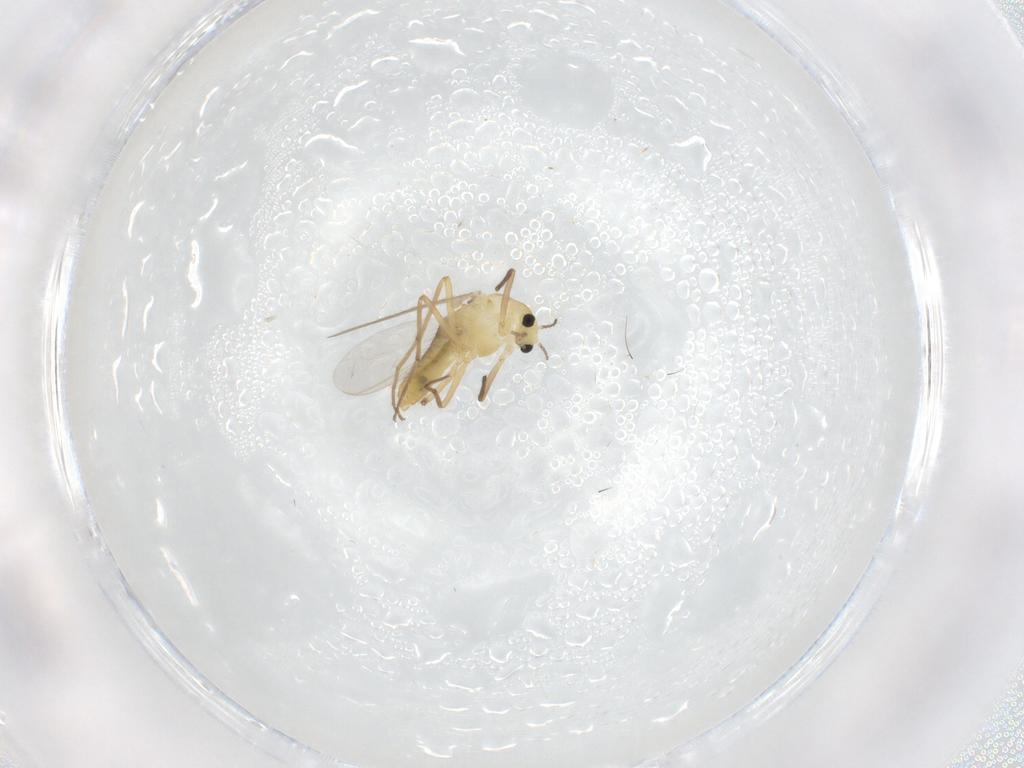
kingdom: Animalia
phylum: Arthropoda
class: Insecta
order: Diptera
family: Chironomidae
